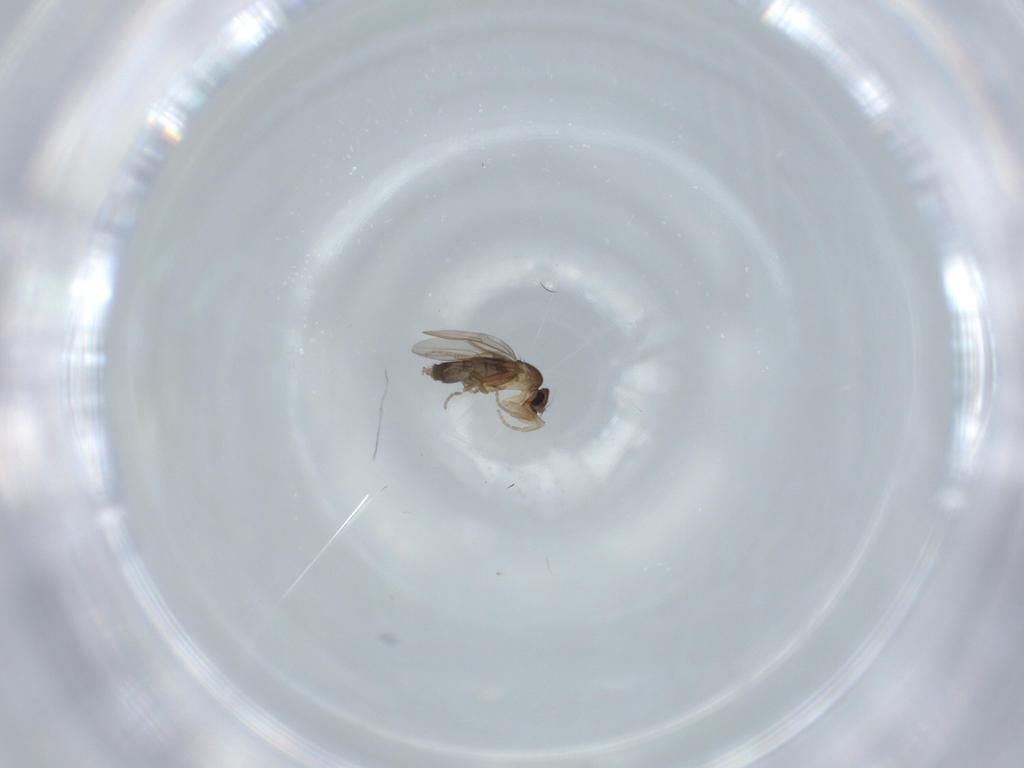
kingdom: Animalia
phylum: Arthropoda
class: Insecta
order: Diptera
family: Phoridae
